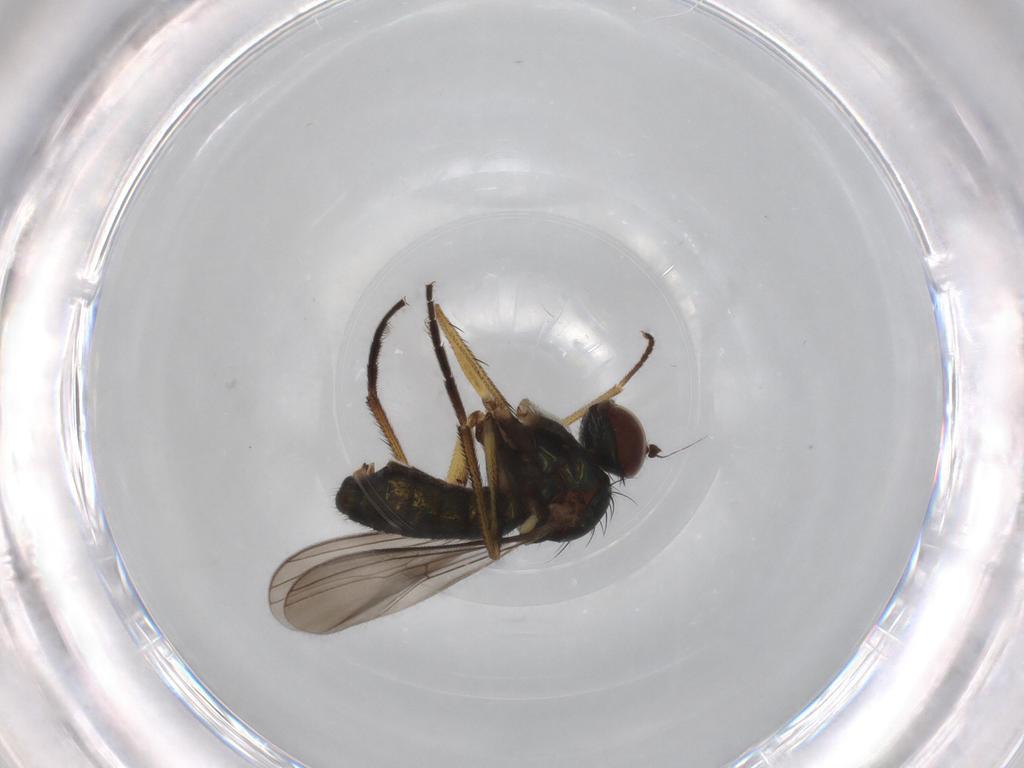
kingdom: Animalia
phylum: Arthropoda
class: Insecta
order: Diptera
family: Dolichopodidae
